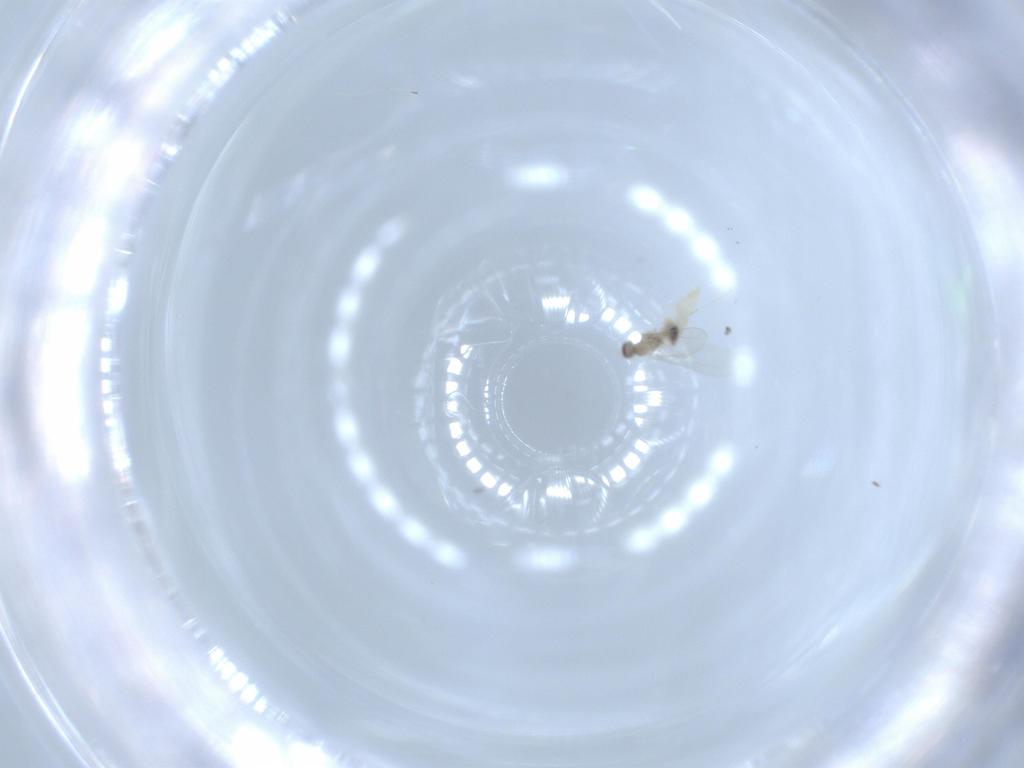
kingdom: Animalia
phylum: Arthropoda
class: Insecta
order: Diptera
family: Cecidomyiidae
